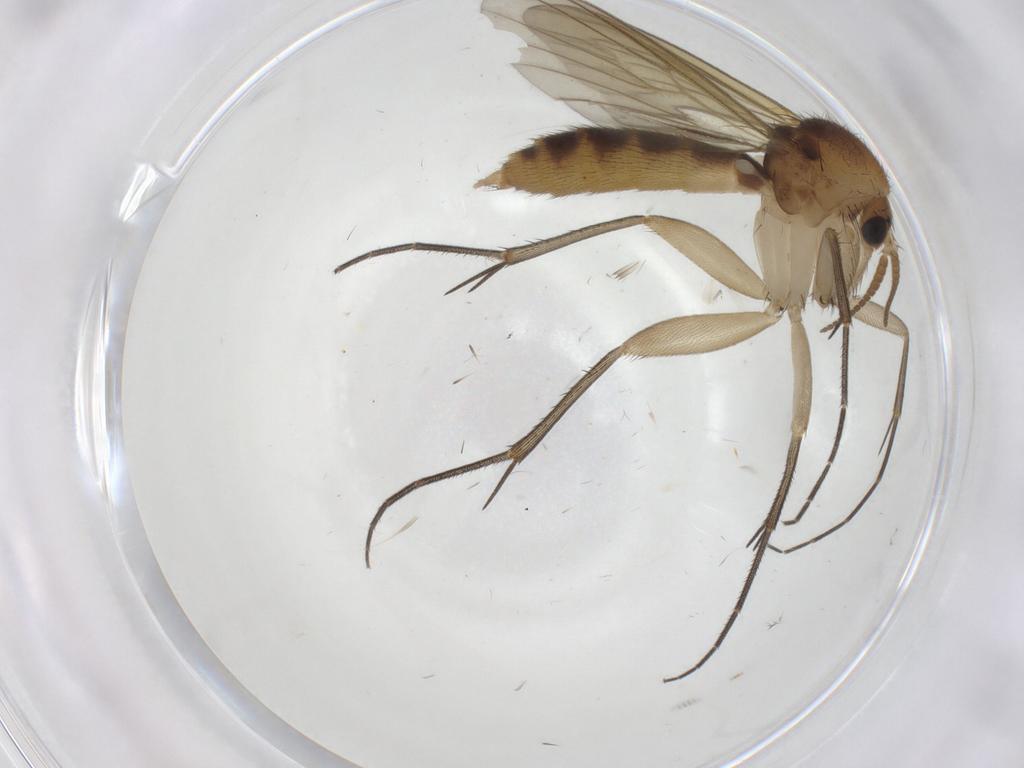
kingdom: Animalia
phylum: Arthropoda
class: Insecta
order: Diptera
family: Mycetophilidae
